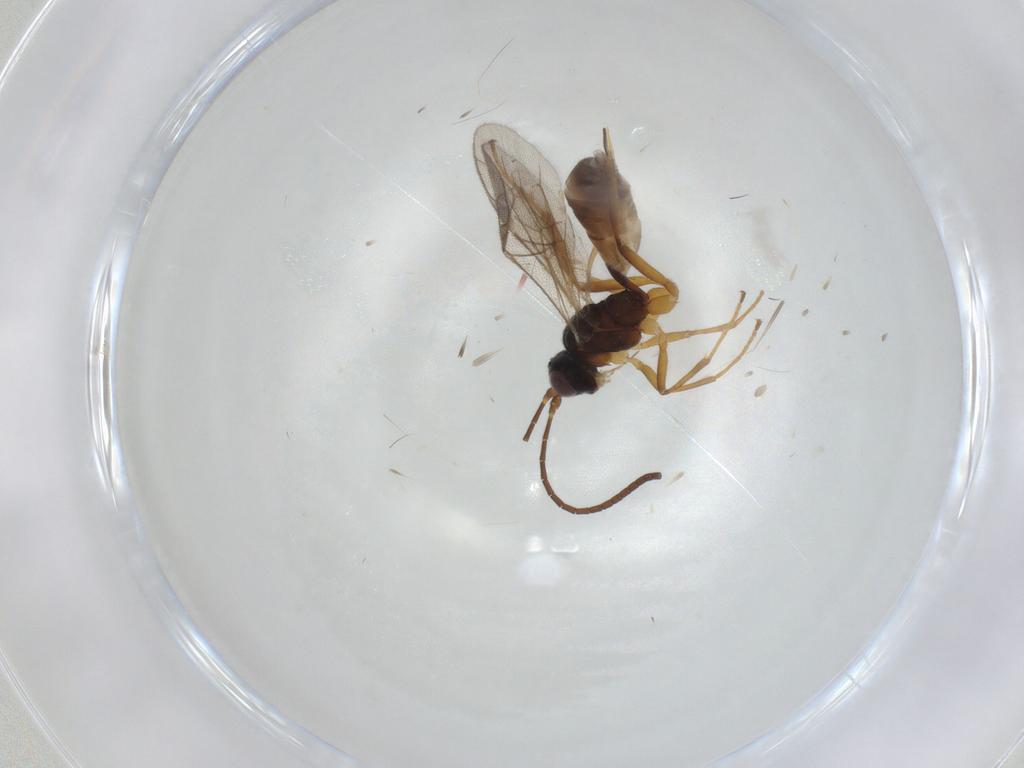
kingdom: Animalia
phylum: Arthropoda
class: Insecta
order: Hymenoptera
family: Ichneumonidae
